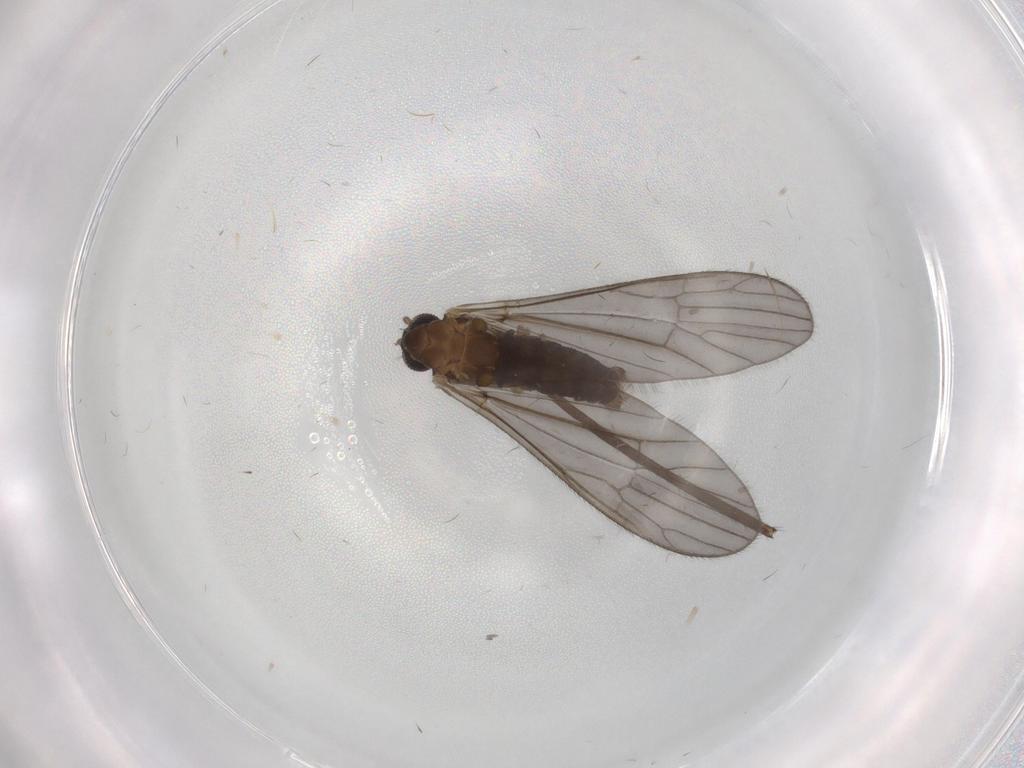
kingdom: Animalia
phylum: Arthropoda
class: Insecta
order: Diptera
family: Dolichopodidae
